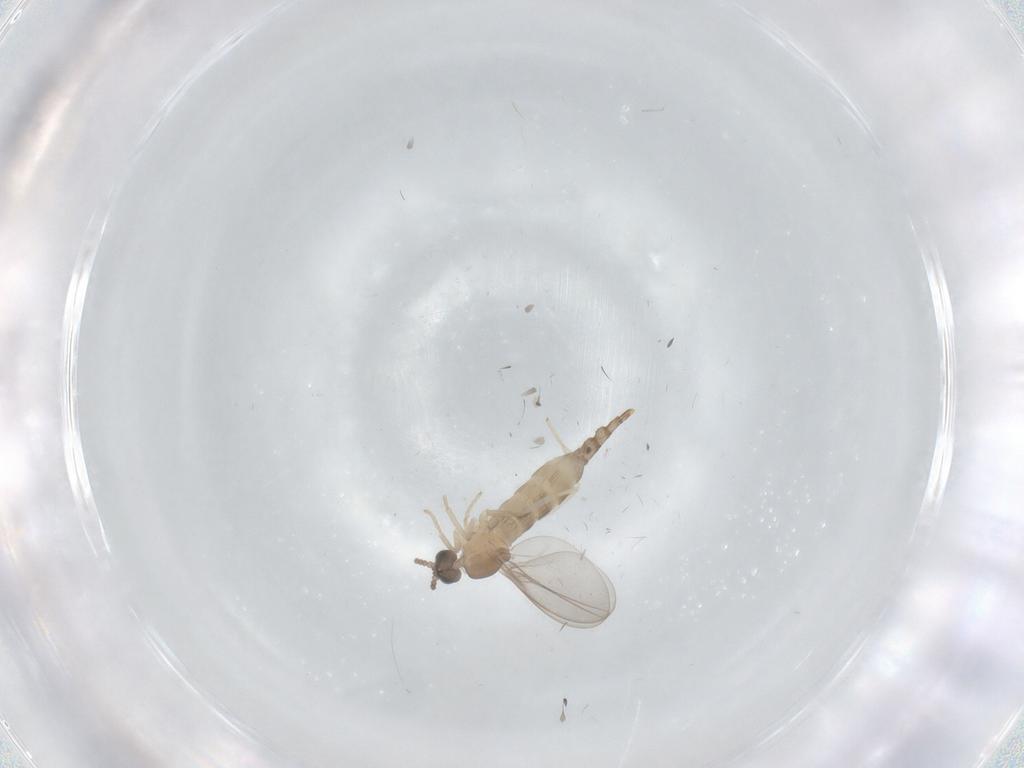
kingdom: Animalia
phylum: Arthropoda
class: Insecta
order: Diptera
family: Cecidomyiidae
